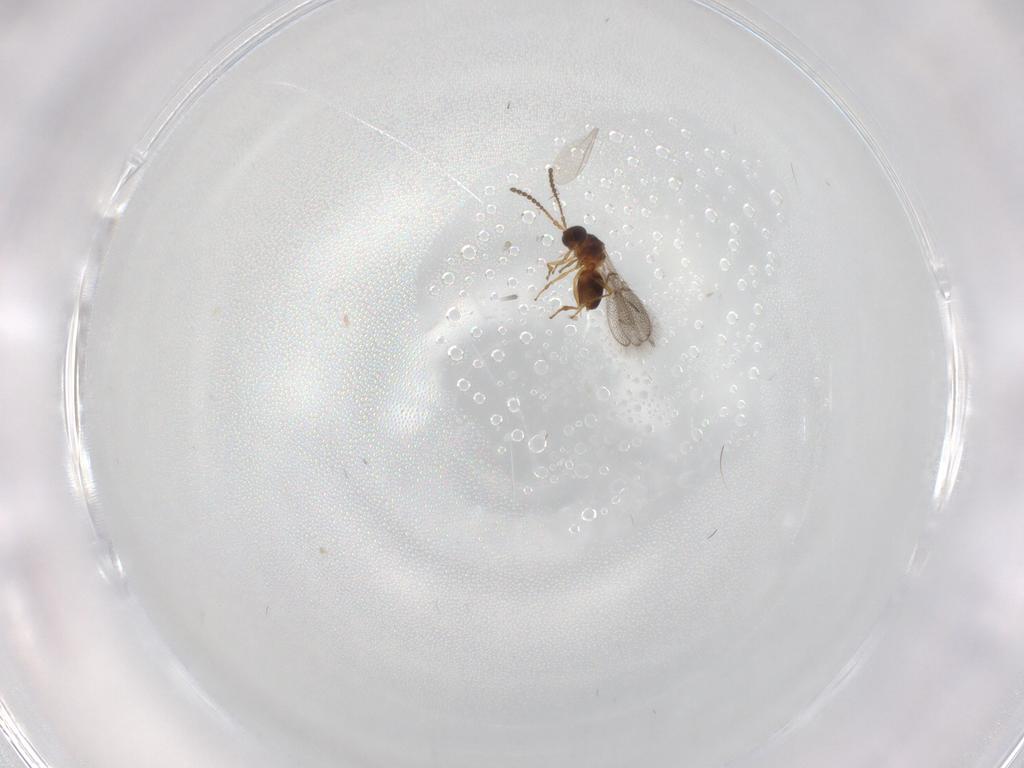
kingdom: Animalia
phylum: Arthropoda
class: Insecta
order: Hymenoptera
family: Figitidae
